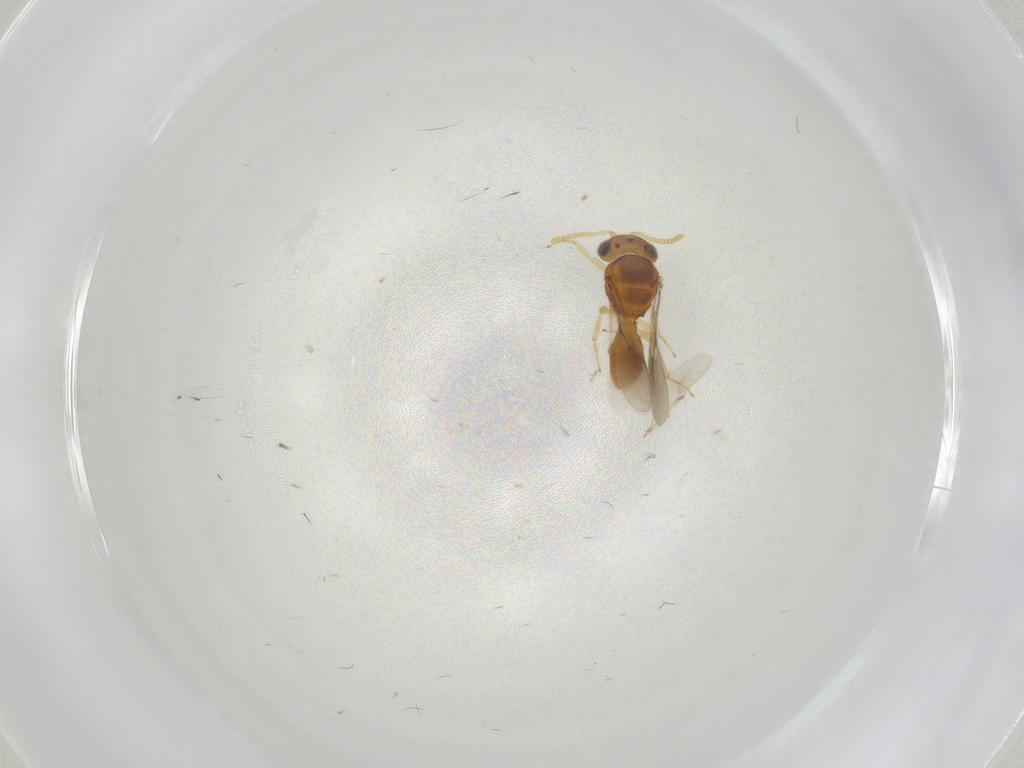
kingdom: Animalia
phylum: Arthropoda
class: Insecta
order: Hymenoptera
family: Scelionidae
